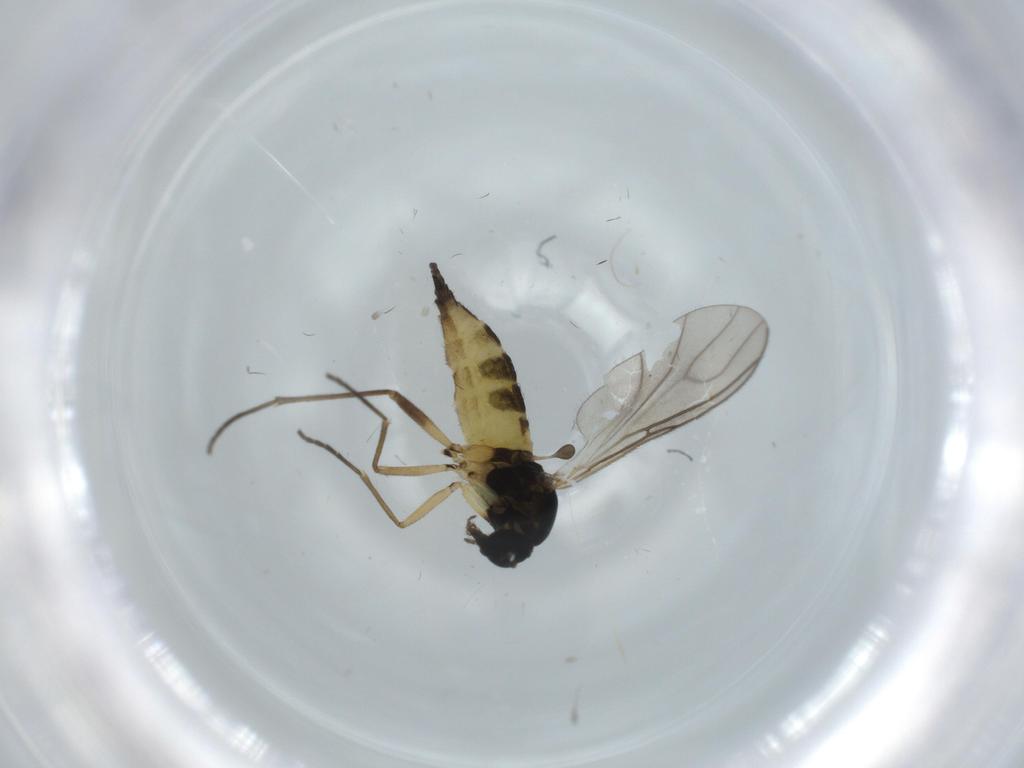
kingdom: Animalia
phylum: Arthropoda
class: Insecta
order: Diptera
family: Sciaridae
